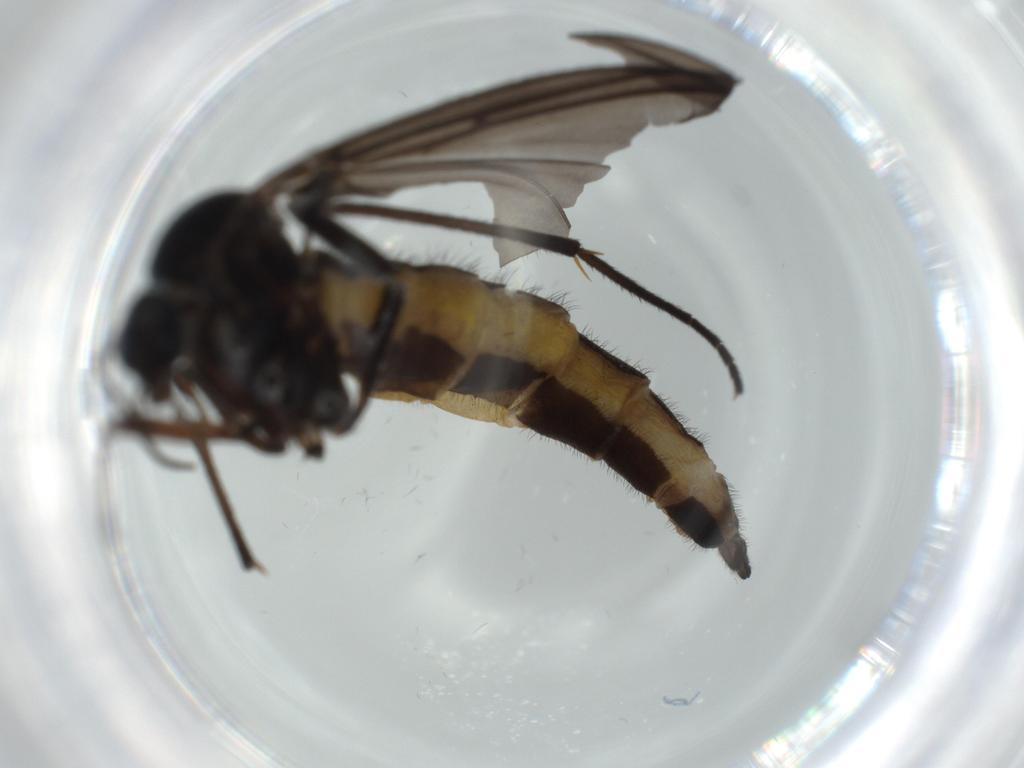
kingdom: Animalia
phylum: Arthropoda
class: Insecta
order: Diptera
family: Sciaridae
